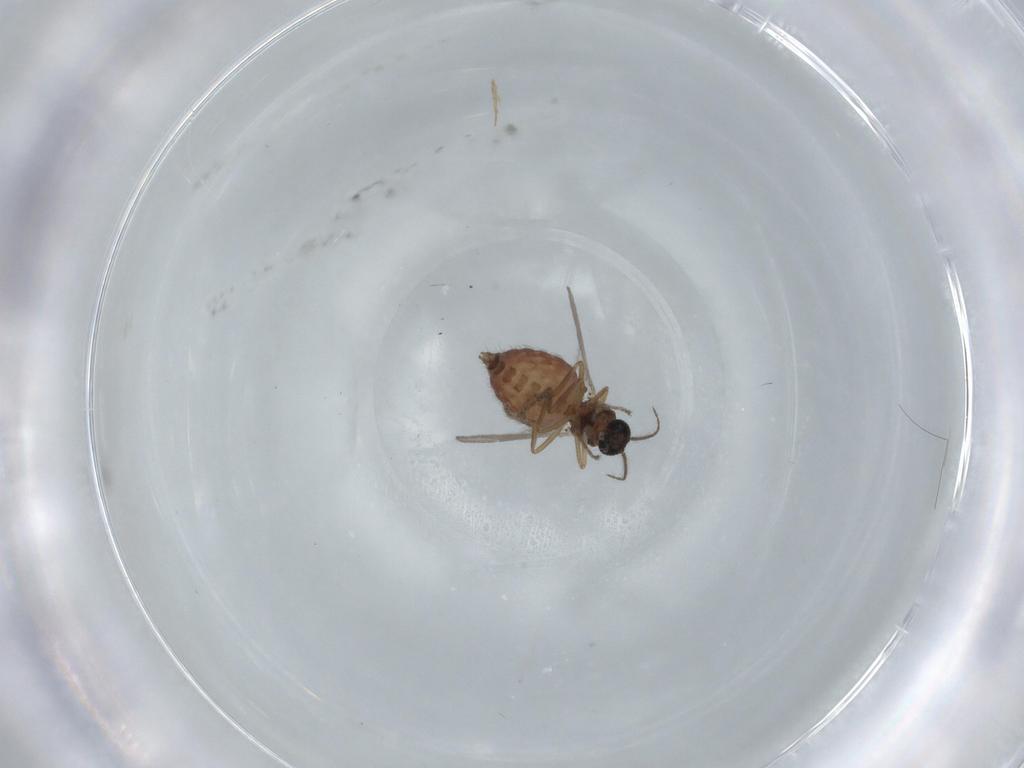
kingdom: Animalia
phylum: Arthropoda
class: Insecta
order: Diptera
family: Ceratopogonidae
